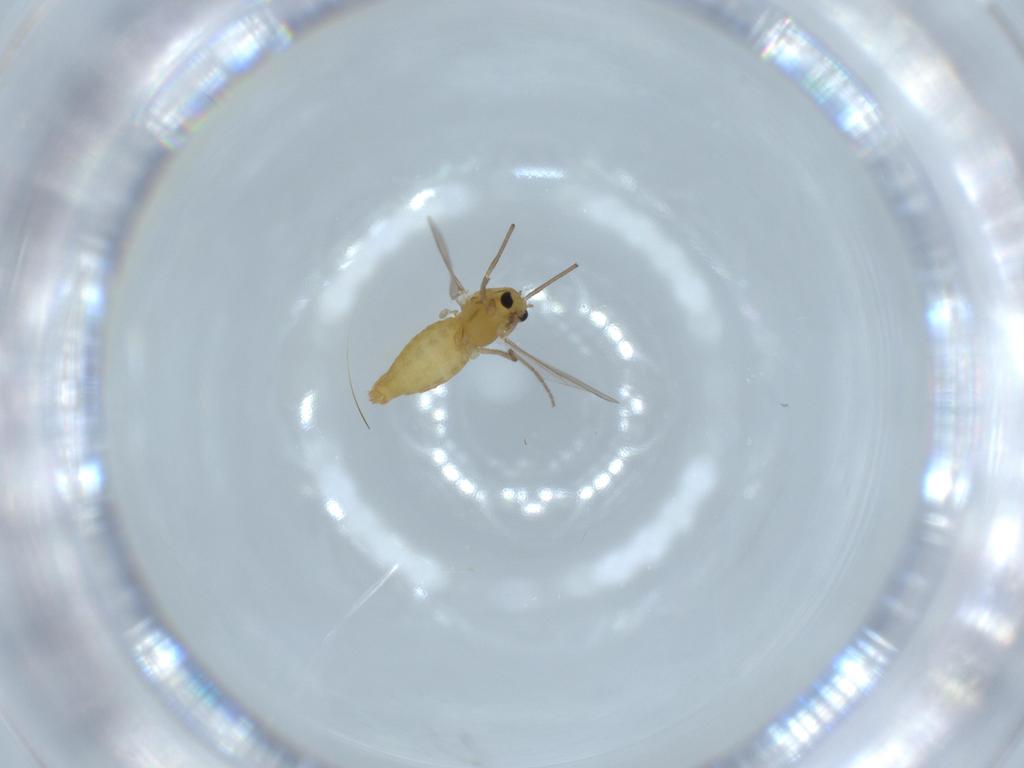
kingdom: Animalia
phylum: Arthropoda
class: Insecta
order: Diptera
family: Chironomidae
